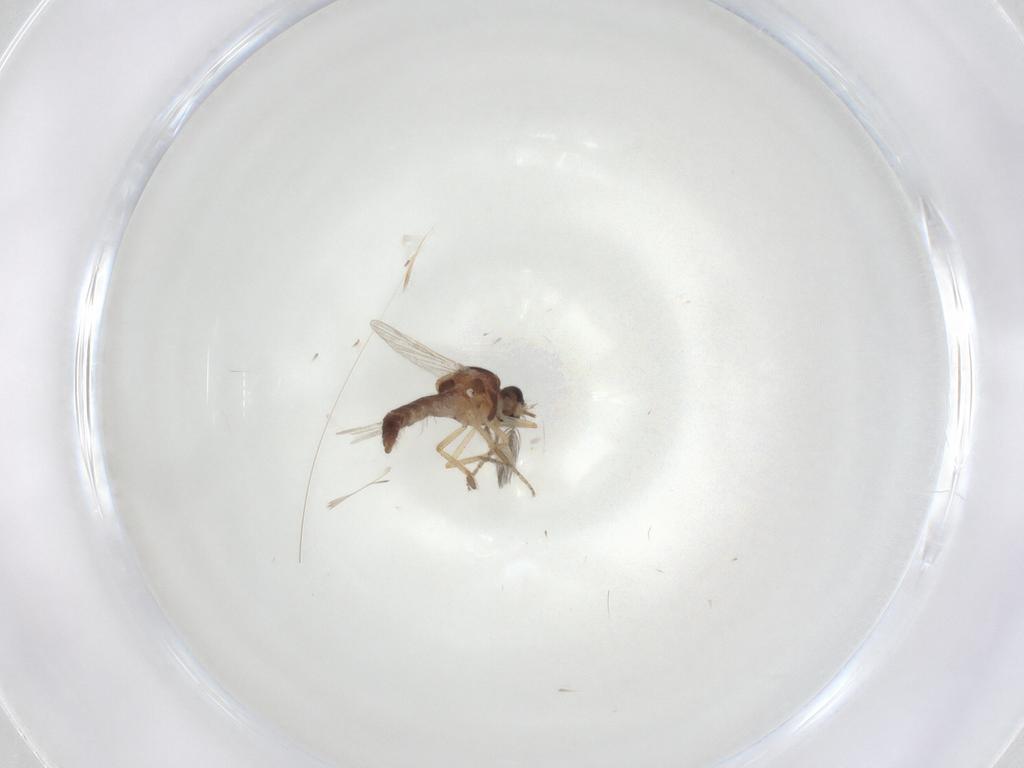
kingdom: Animalia
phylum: Arthropoda
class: Insecta
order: Diptera
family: Ceratopogonidae
